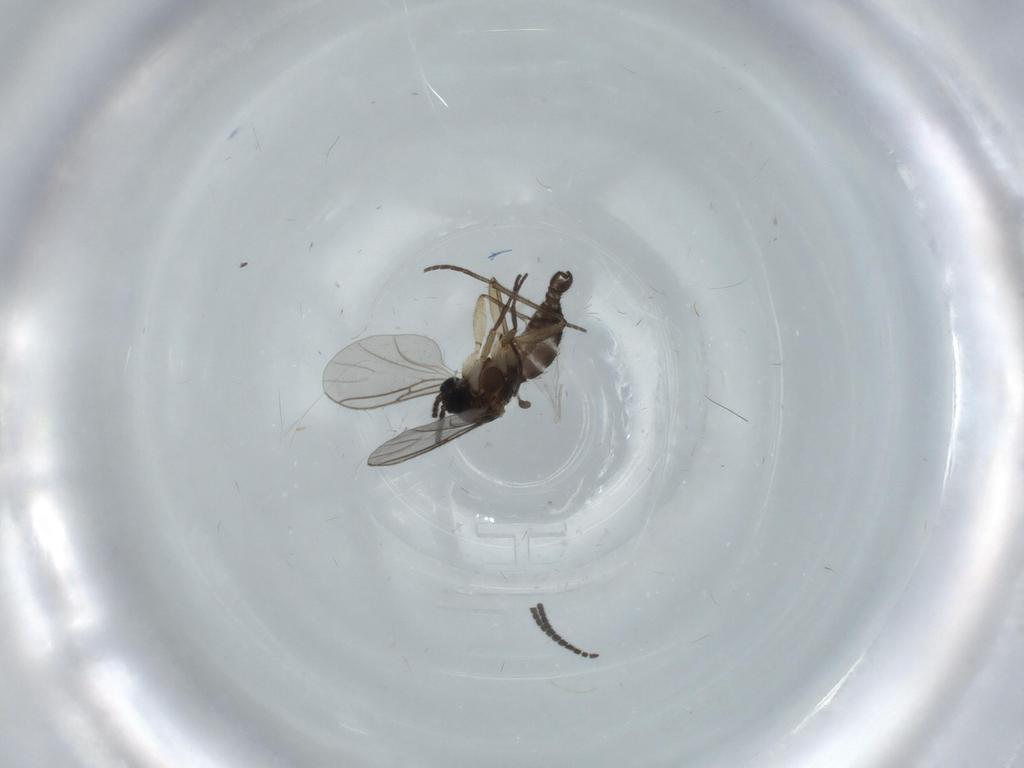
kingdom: Animalia
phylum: Arthropoda
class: Insecta
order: Diptera
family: Sciaridae
